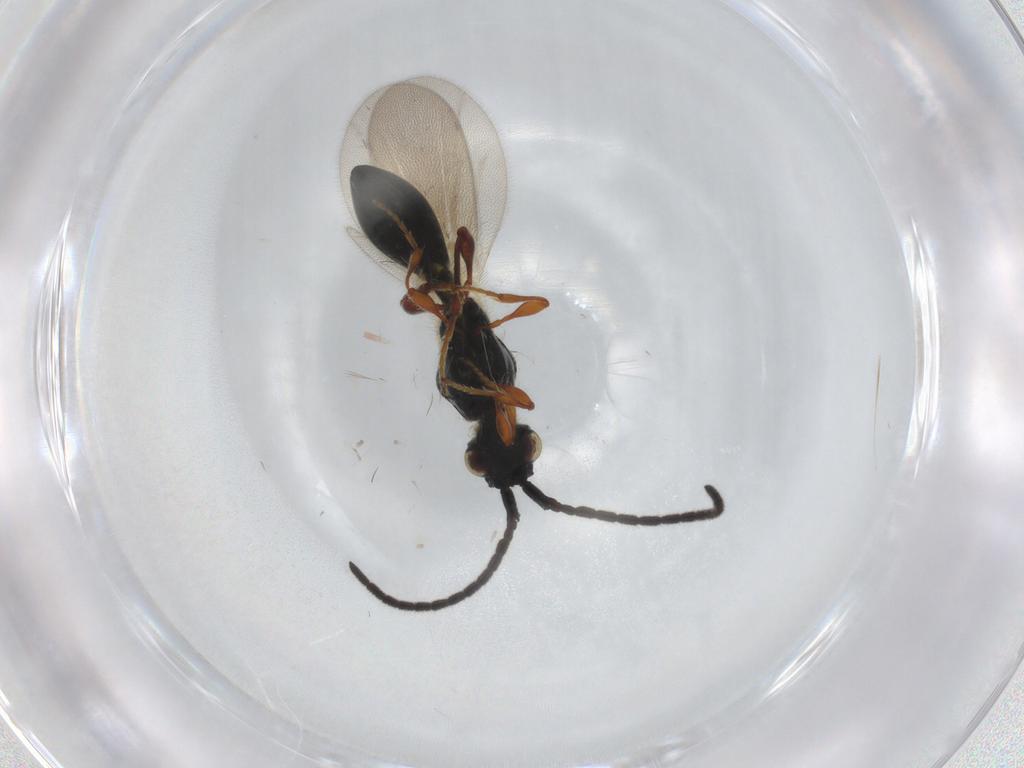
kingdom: Animalia
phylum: Arthropoda
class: Insecta
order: Hymenoptera
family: Diapriidae
